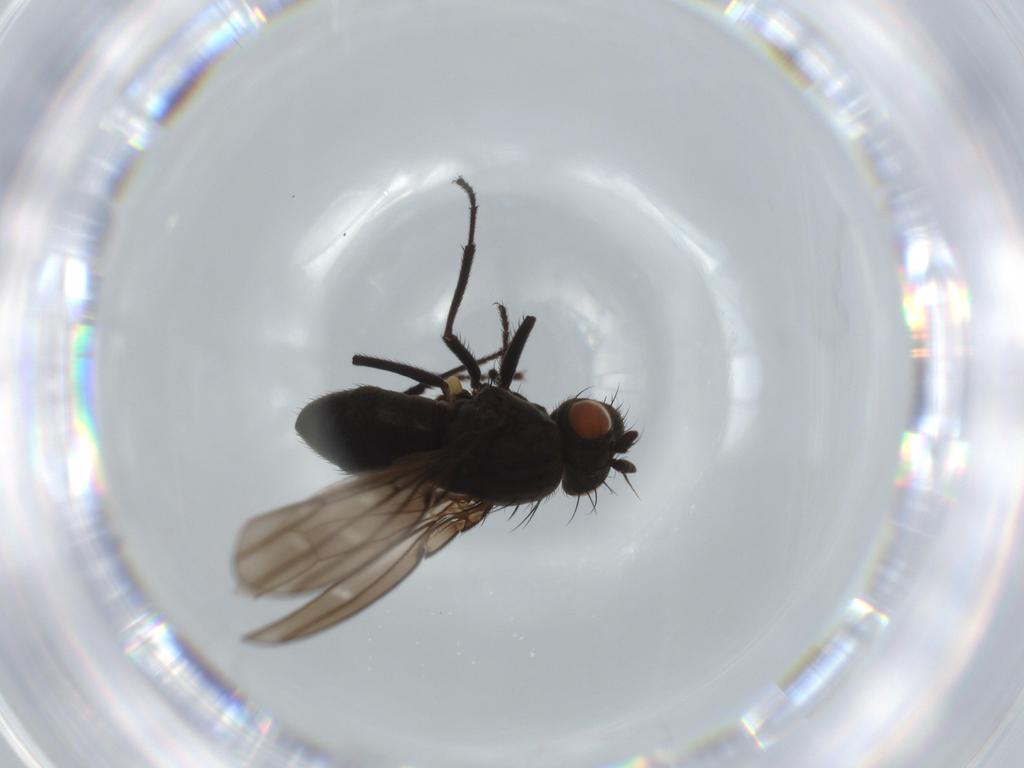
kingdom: Animalia
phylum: Arthropoda
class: Insecta
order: Diptera
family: Ephydridae
